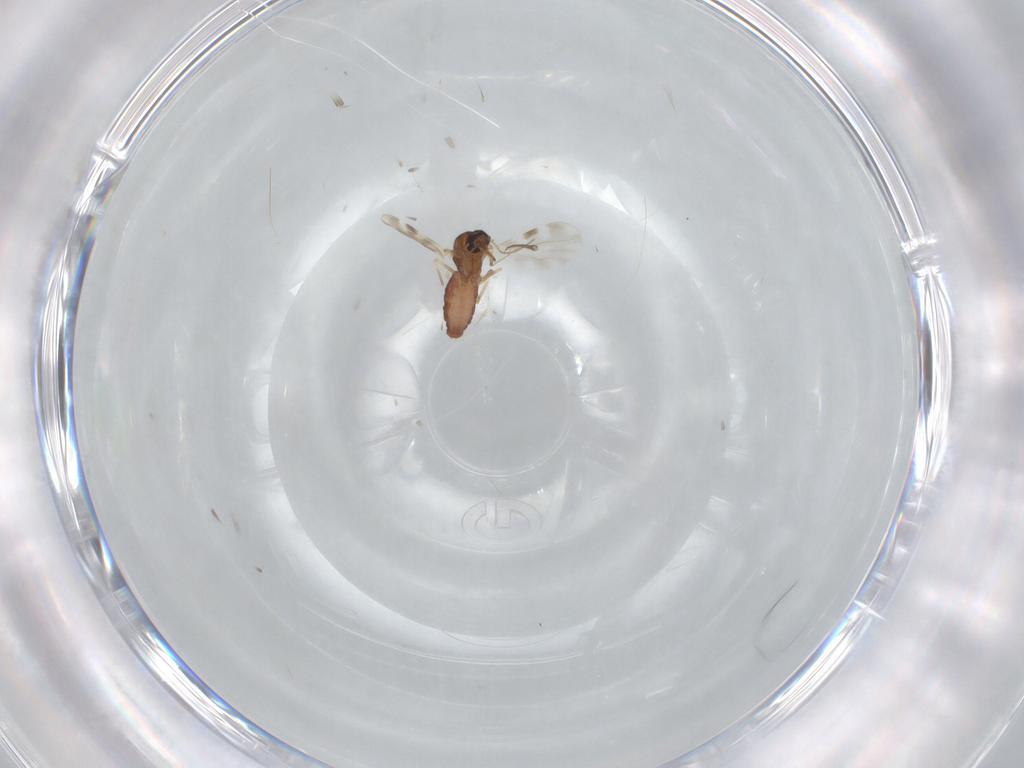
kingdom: Animalia
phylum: Arthropoda
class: Insecta
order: Diptera
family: Psychodidae
